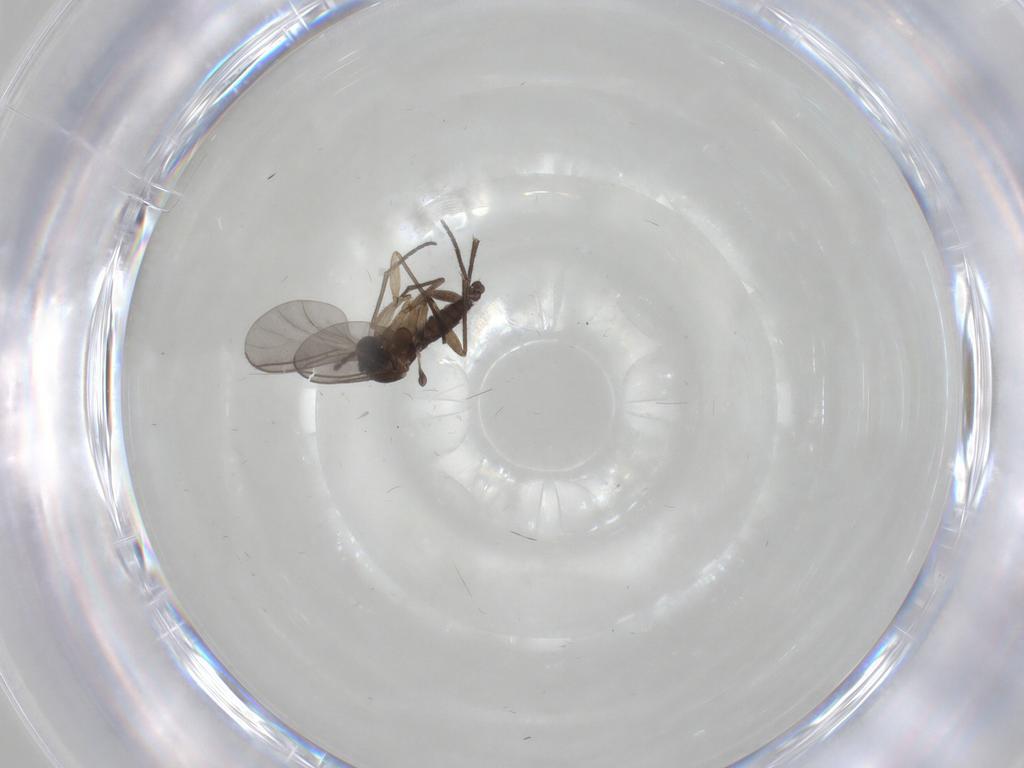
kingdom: Animalia
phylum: Arthropoda
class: Insecta
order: Diptera
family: Sciaridae
